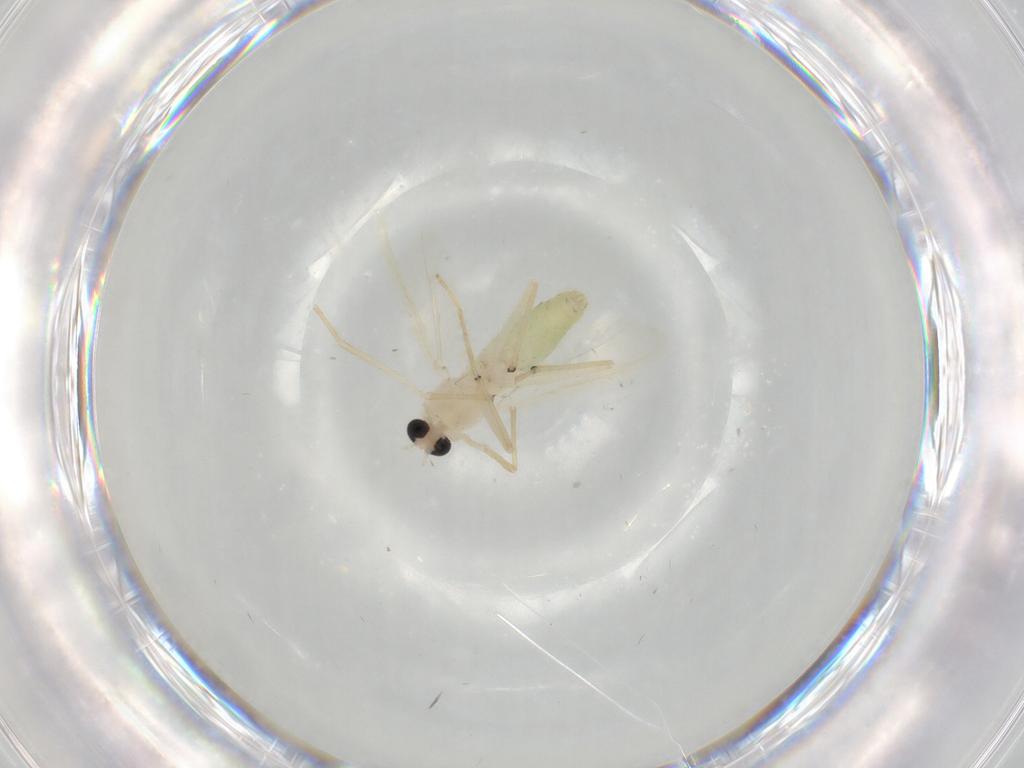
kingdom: Animalia
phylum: Arthropoda
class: Insecta
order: Diptera
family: Chironomidae
